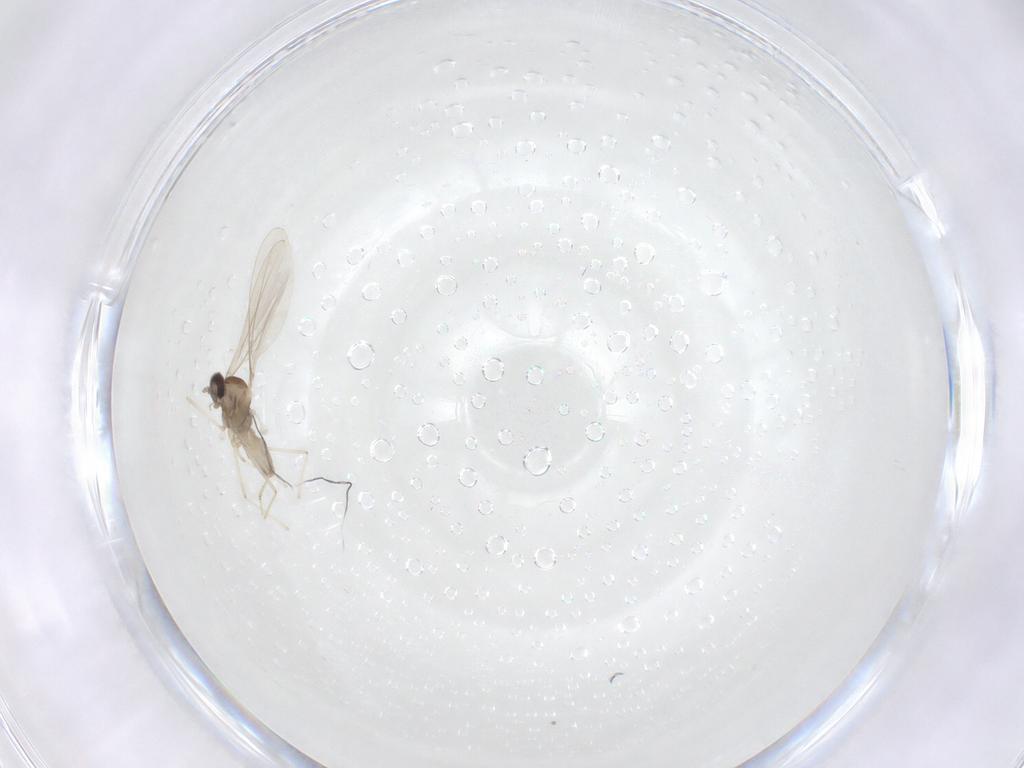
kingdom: Animalia
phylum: Arthropoda
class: Insecta
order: Diptera
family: Cecidomyiidae
